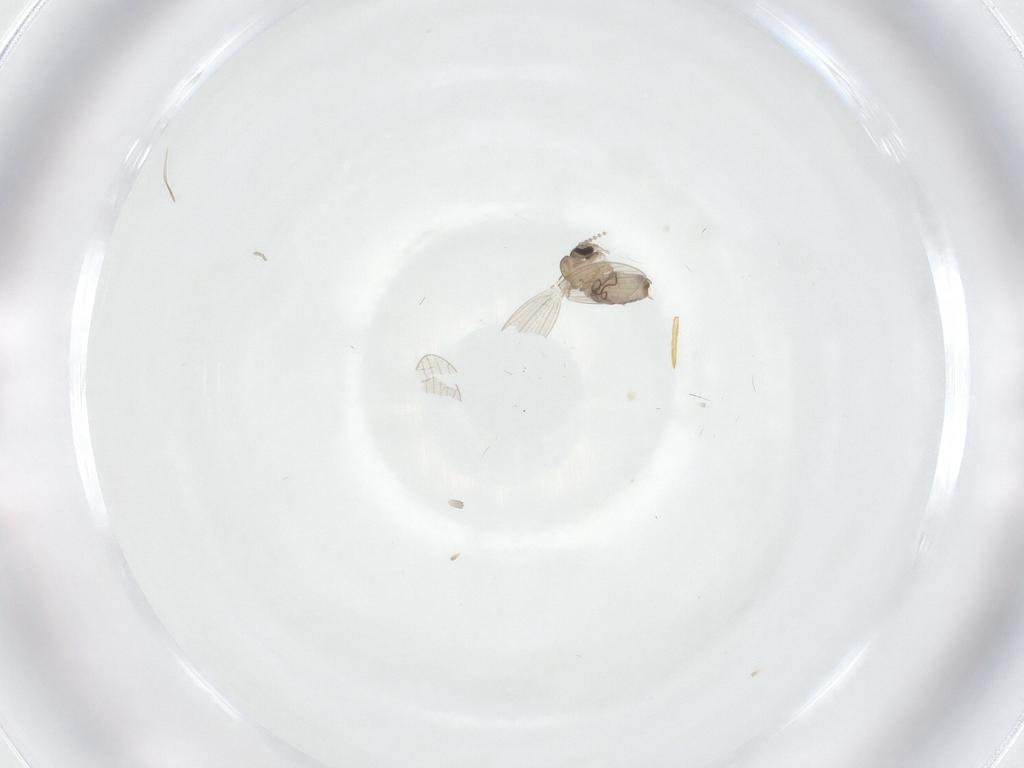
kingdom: Animalia
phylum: Arthropoda
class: Insecta
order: Diptera
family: Psychodidae
